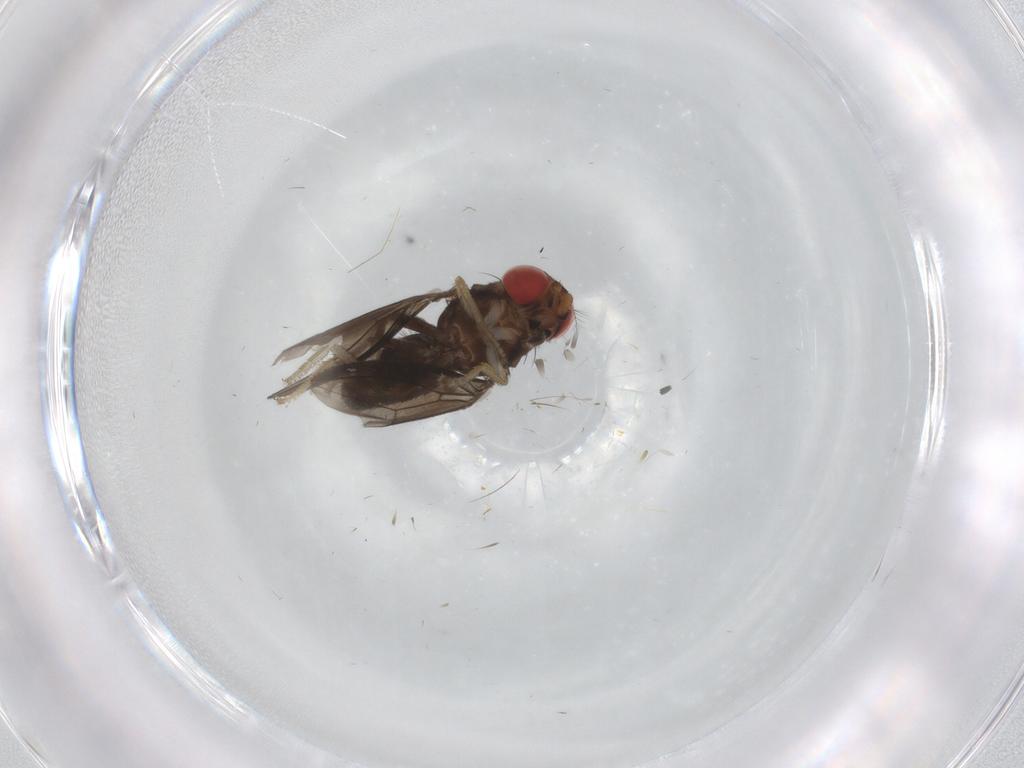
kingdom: Animalia
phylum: Arthropoda
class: Insecta
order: Diptera
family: Drosophilidae
